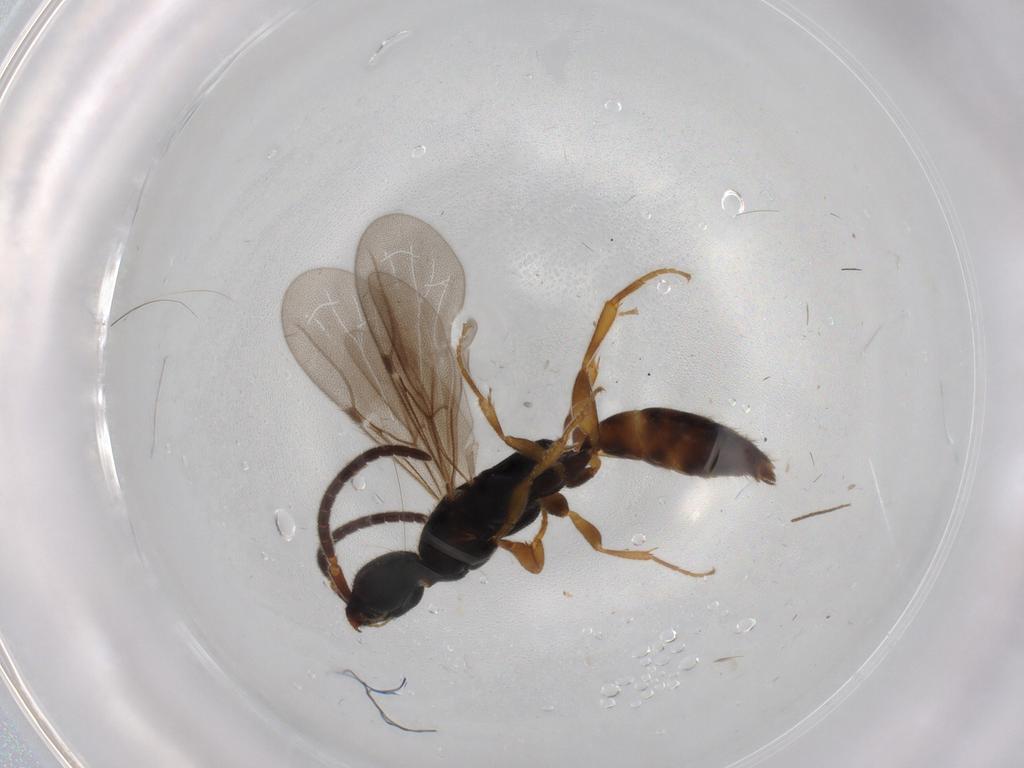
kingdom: Animalia
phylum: Arthropoda
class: Insecta
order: Hymenoptera
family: Bethylidae
